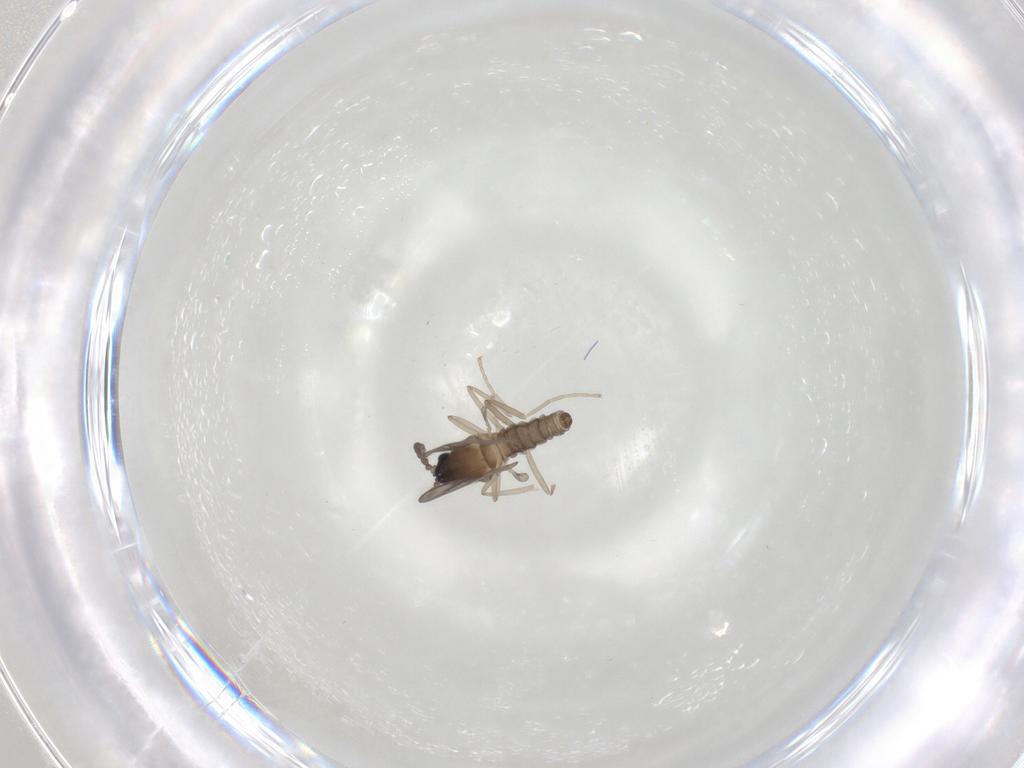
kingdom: Animalia
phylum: Arthropoda
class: Insecta
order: Diptera
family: Cecidomyiidae
